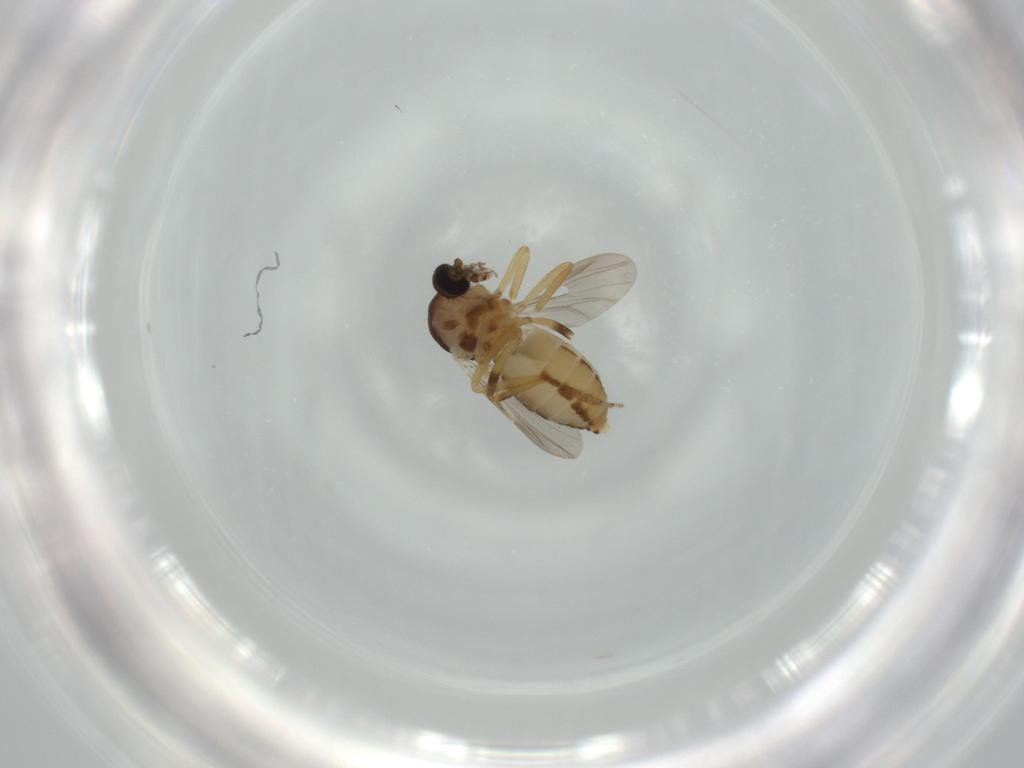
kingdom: Animalia
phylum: Arthropoda
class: Insecta
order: Diptera
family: Ceratopogonidae
